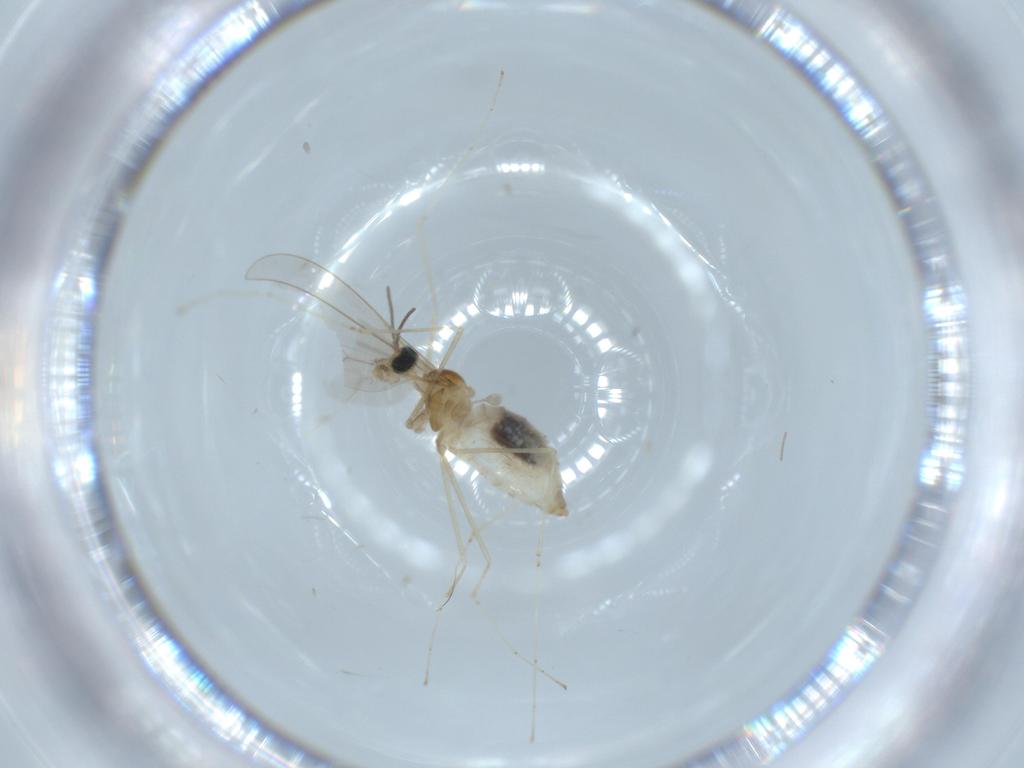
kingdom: Animalia
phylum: Arthropoda
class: Insecta
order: Diptera
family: Cecidomyiidae
